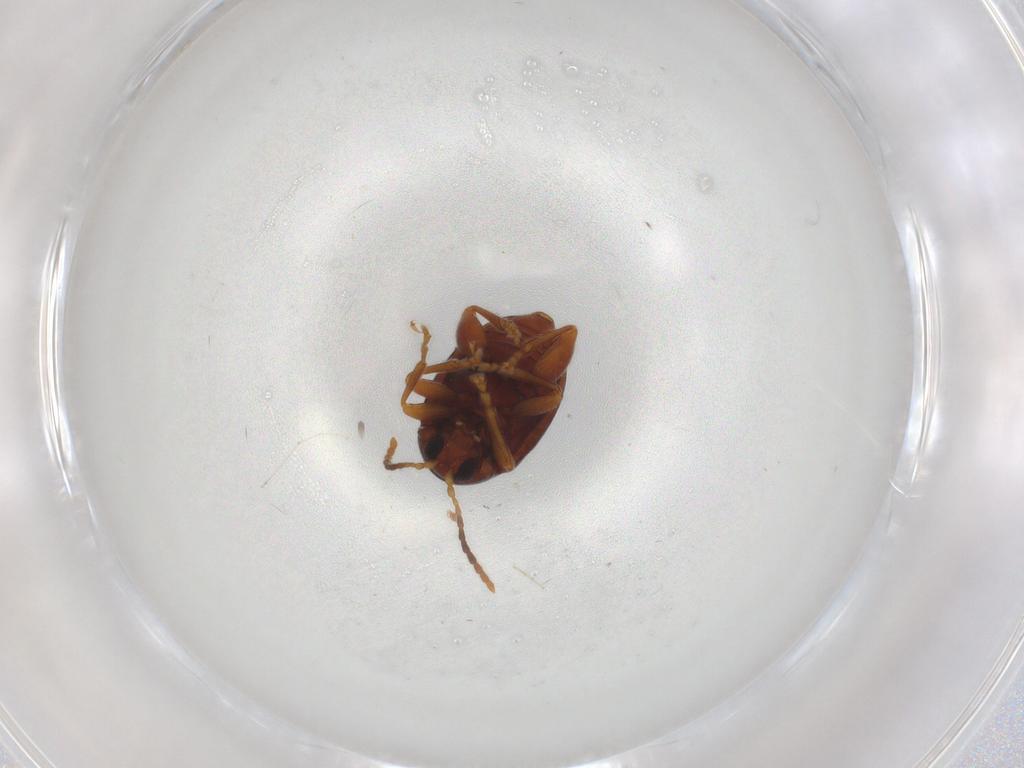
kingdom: Animalia
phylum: Arthropoda
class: Insecta
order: Coleoptera
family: Chrysomelidae
